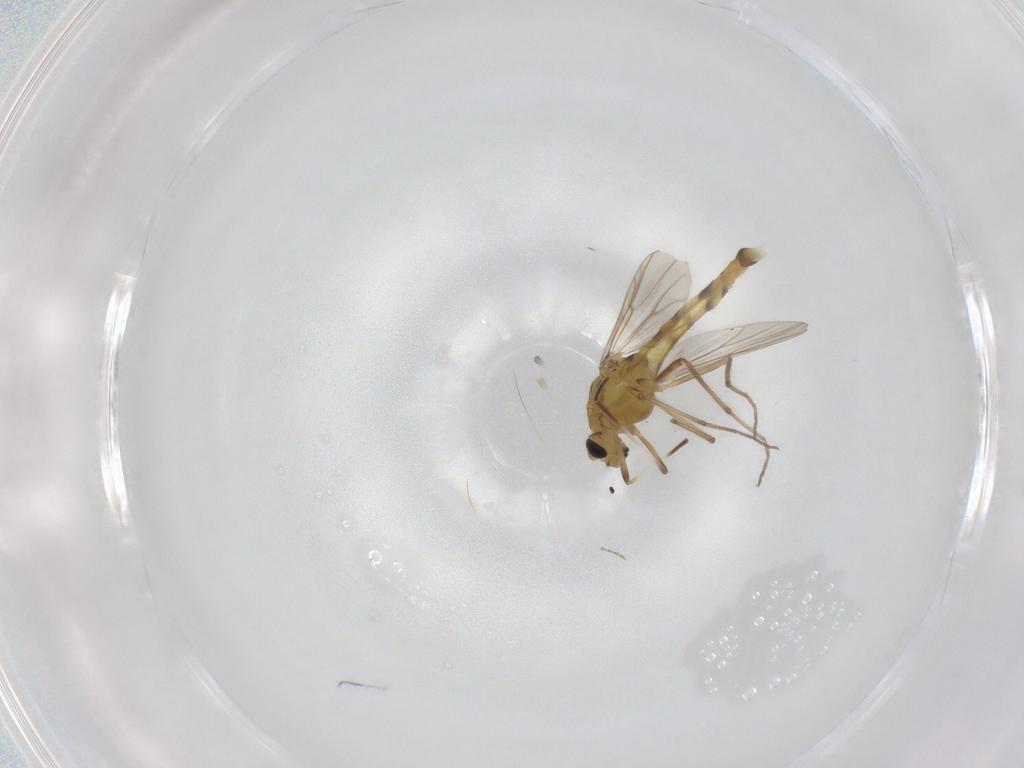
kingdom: Animalia
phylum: Arthropoda
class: Insecta
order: Diptera
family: Chironomidae
